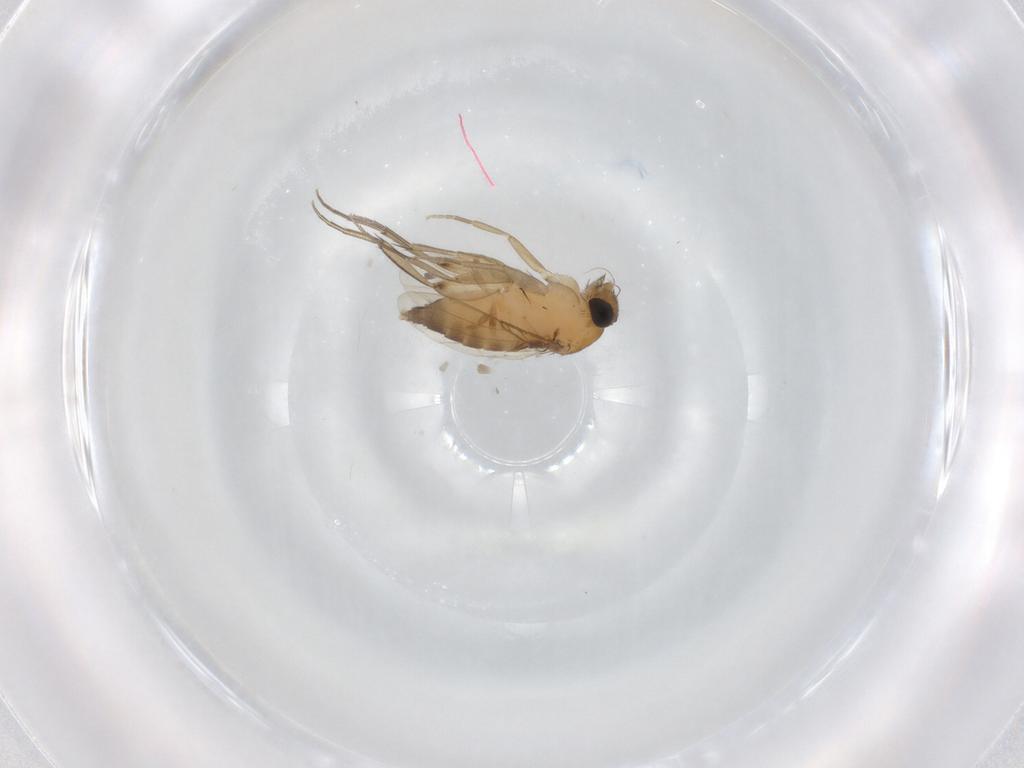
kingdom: Animalia
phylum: Arthropoda
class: Insecta
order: Diptera
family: Phoridae
